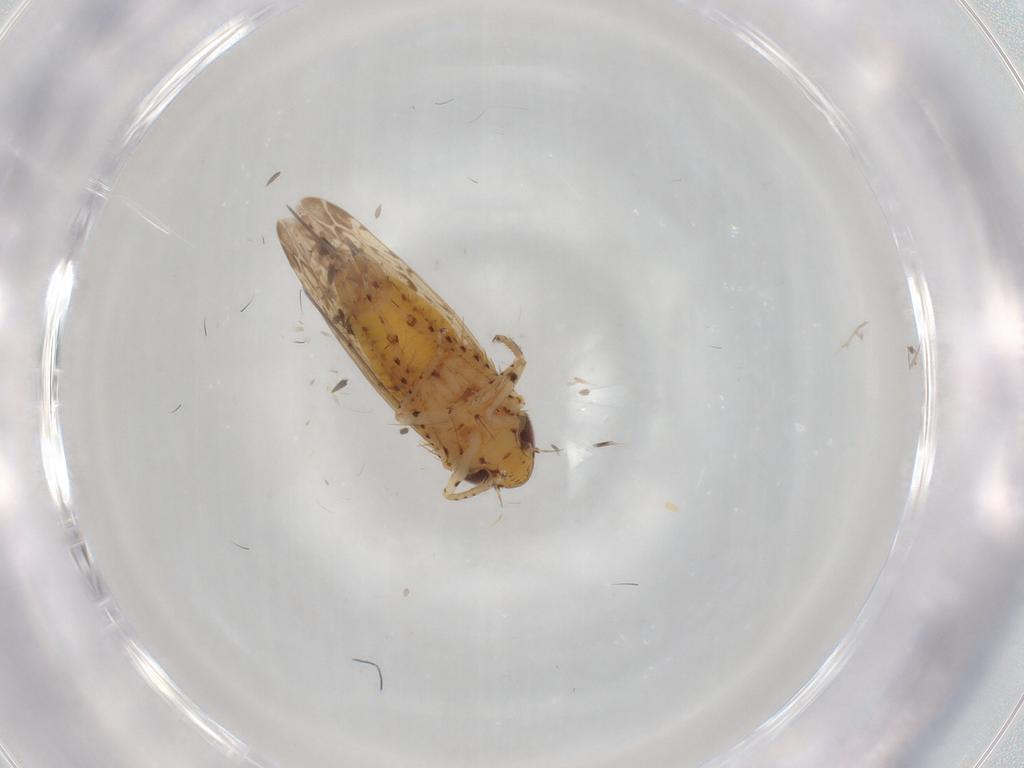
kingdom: Animalia
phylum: Arthropoda
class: Insecta
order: Hemiptera
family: Cicadellidae
